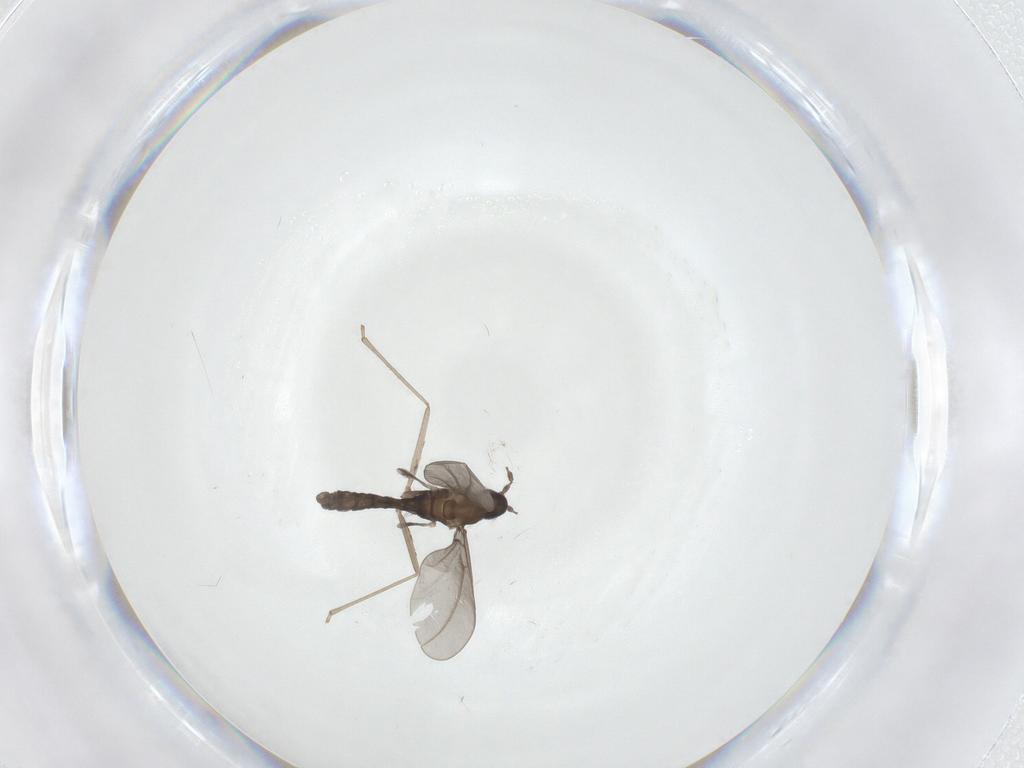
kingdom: Animalia
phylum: Arthropoda
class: Insecta
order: Diptera
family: Cecidomyiidae
